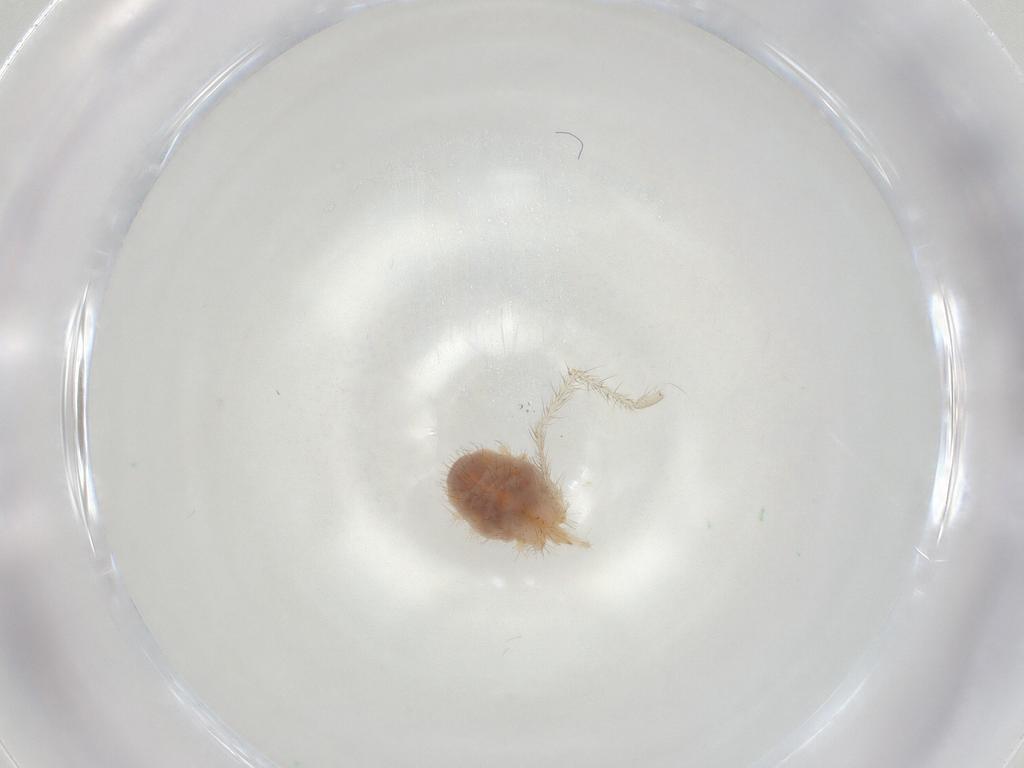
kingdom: Animalia
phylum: Arthropoda
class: Arachnida
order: Trombidiformes
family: Erythraeidae
